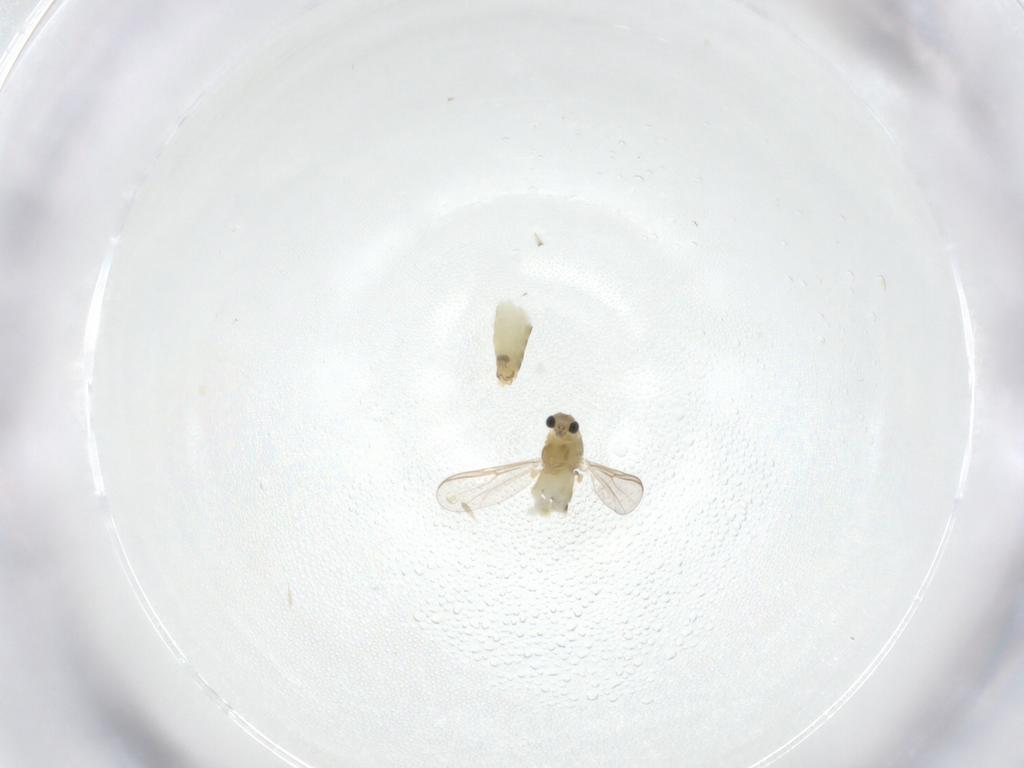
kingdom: Animalia
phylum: Arthropoda
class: Insecta
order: Diptera
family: Chironomidae
